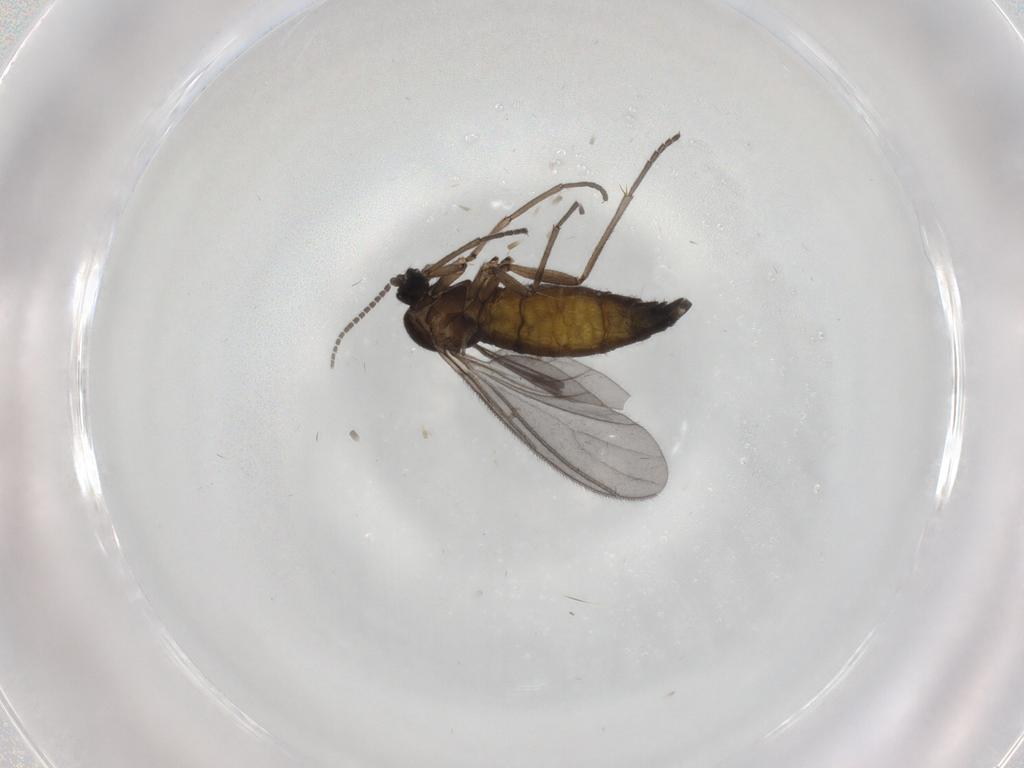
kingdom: Animalia
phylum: Arthropoda
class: Insecta
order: Diptera
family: Sciaridae
